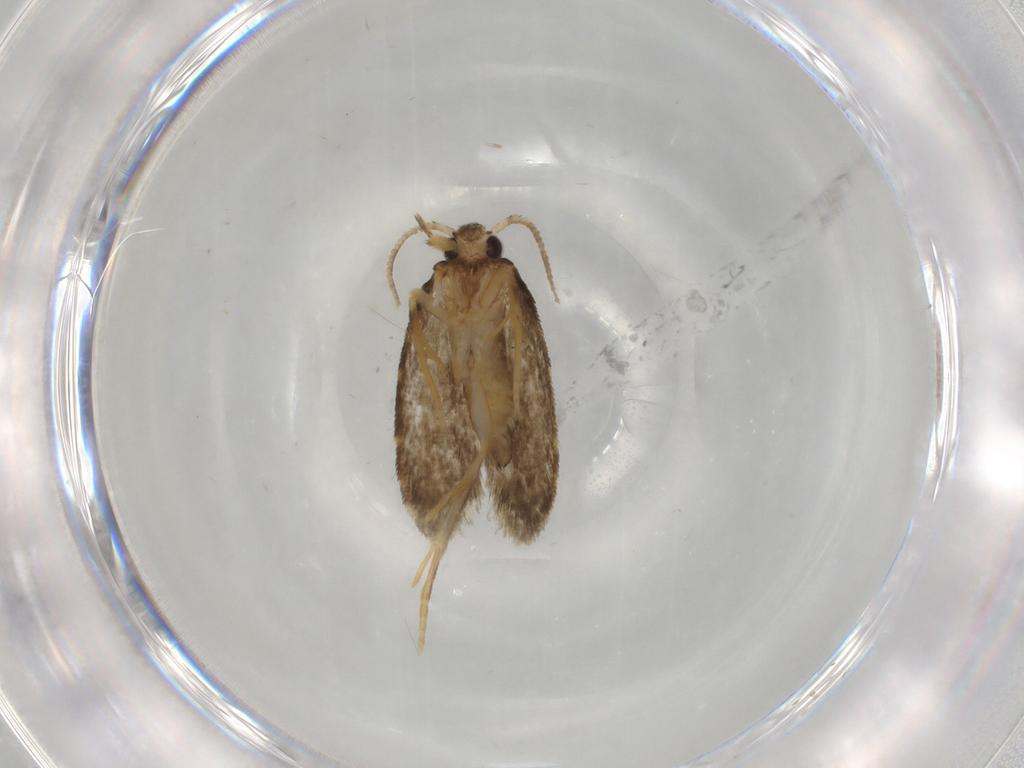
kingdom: Animalia
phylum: Arthropoda
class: Insecta
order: Lepidoptera
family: Psychidae
